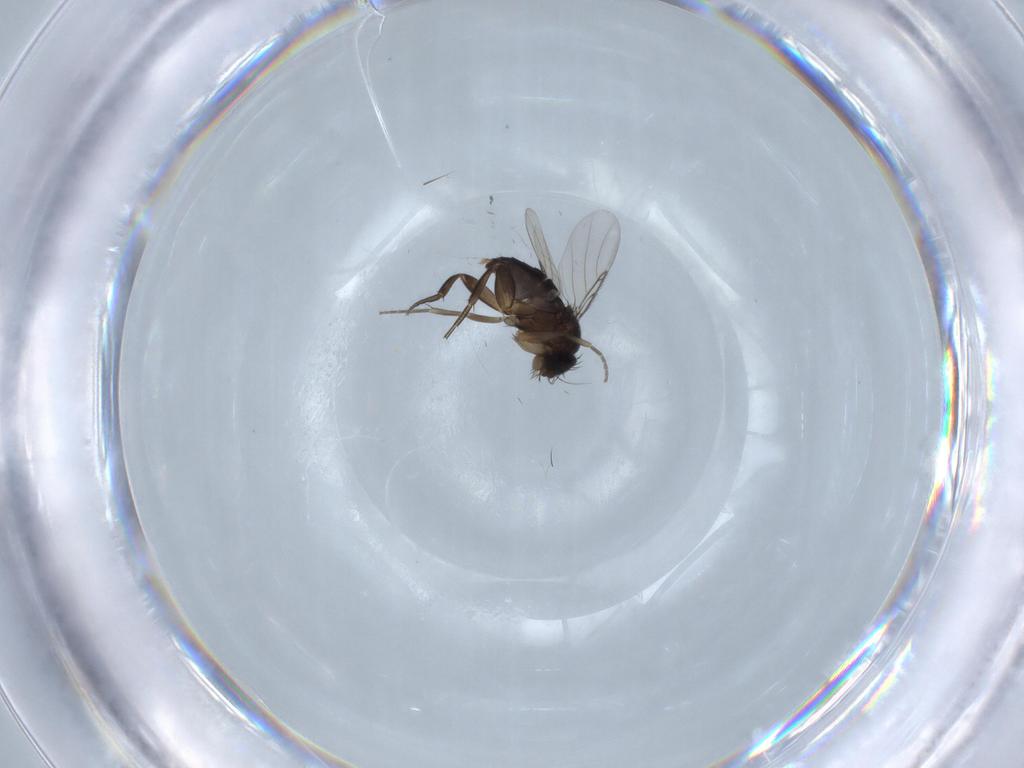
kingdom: Animalia
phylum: Arthropoda
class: Insecta
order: Diptera
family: Phoridae
